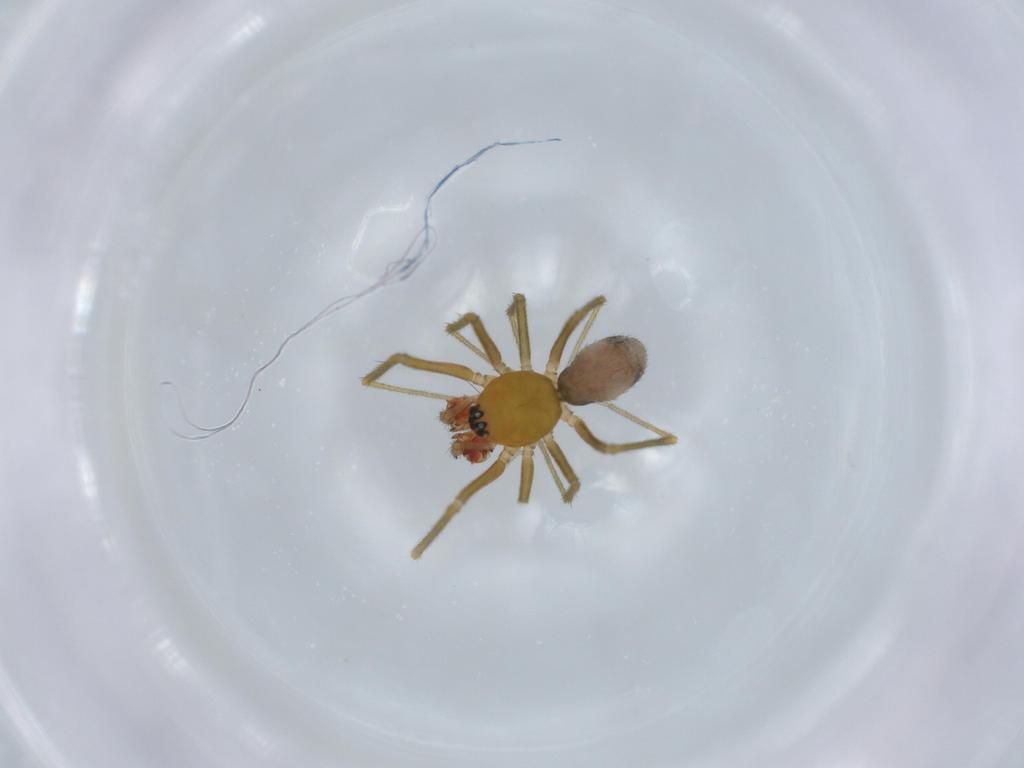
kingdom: Animalia
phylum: Arthropoda
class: Arachnida
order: Araneae
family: Linyphiidae
